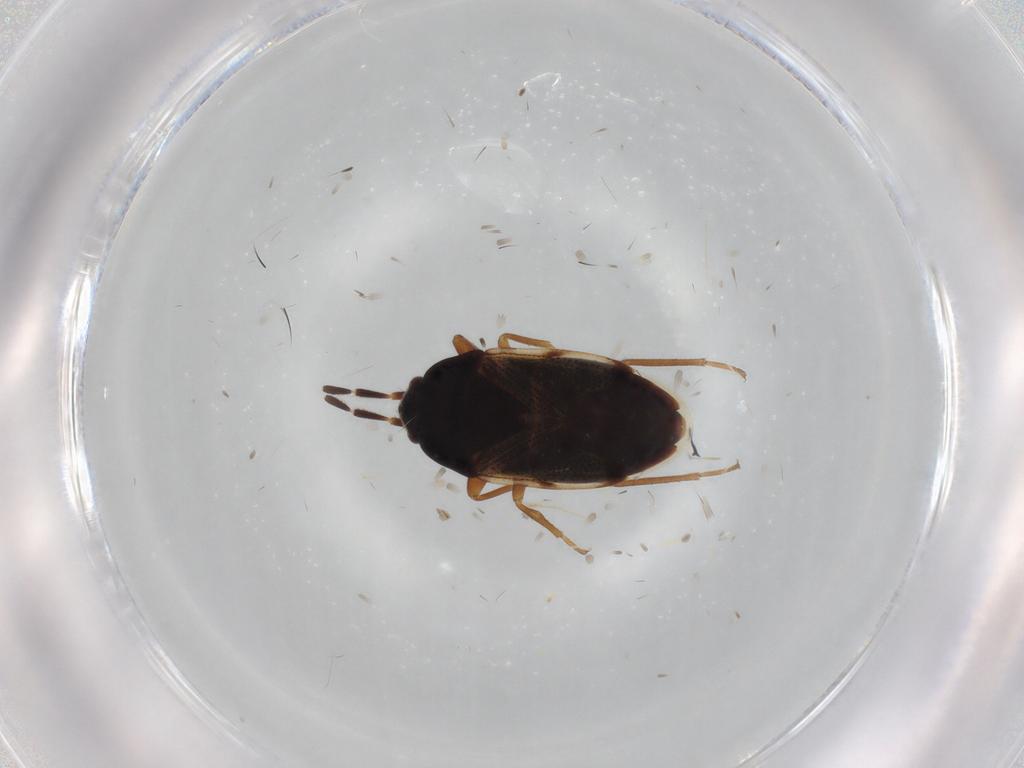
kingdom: Animalia
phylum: Arthropoda
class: Insecta
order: Hemiptera
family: Rhyparochromidae
